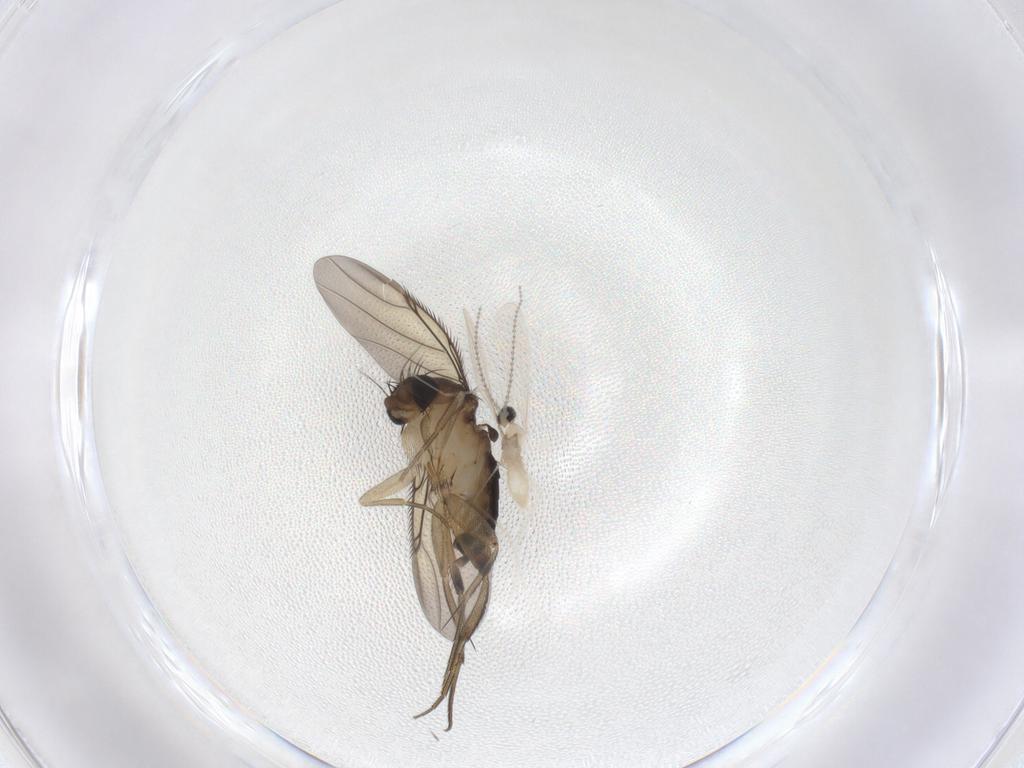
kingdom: Animalia
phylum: Arthropoda
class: Insecta
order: Diptera
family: Phoridae
